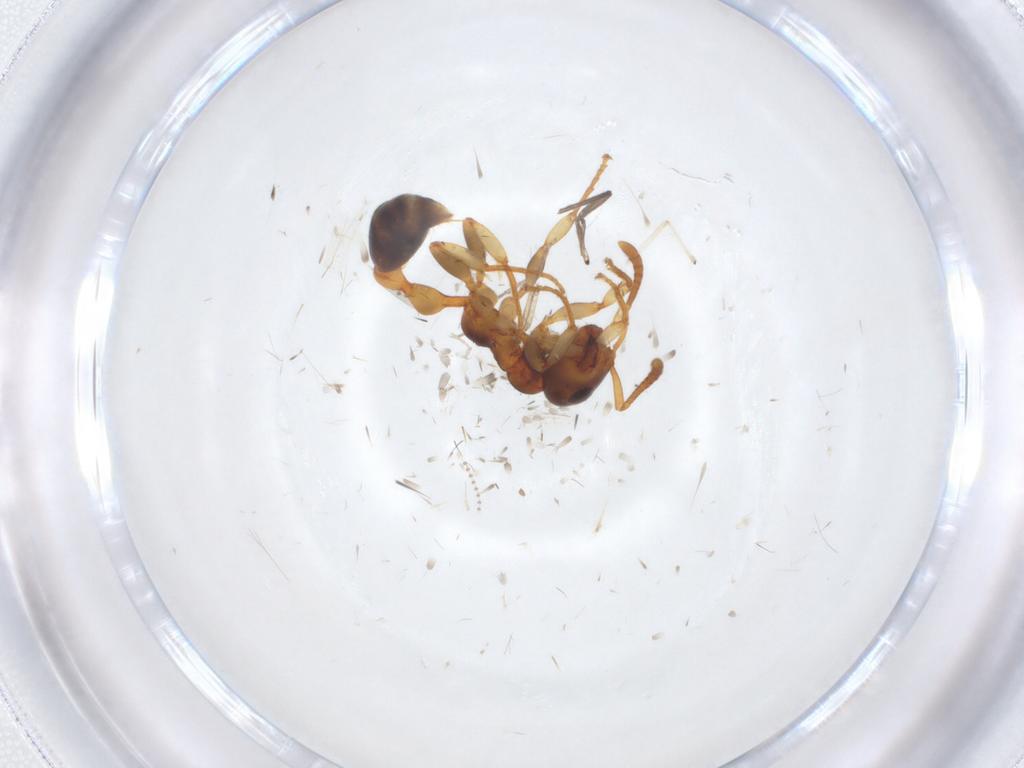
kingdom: Animalia
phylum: Arthropoda
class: Insecta
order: Hymenoptera
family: Formicidae
